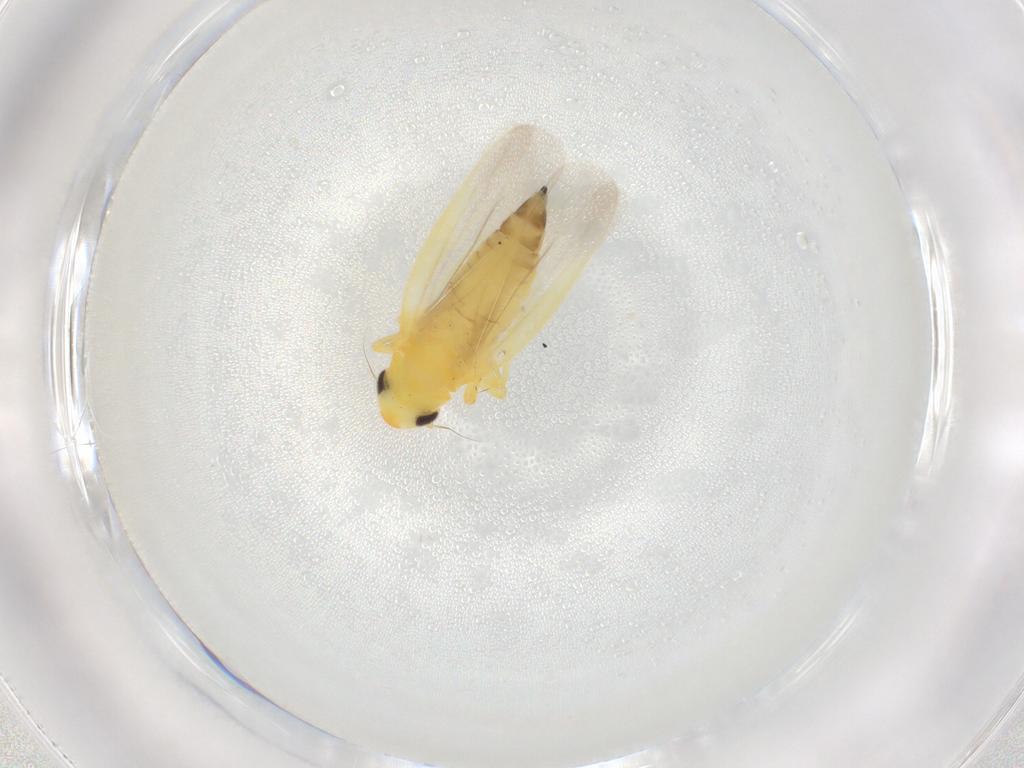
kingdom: Animalia
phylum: Arthropoda
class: Insecta
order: Hemiptera
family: Cicadellidae
